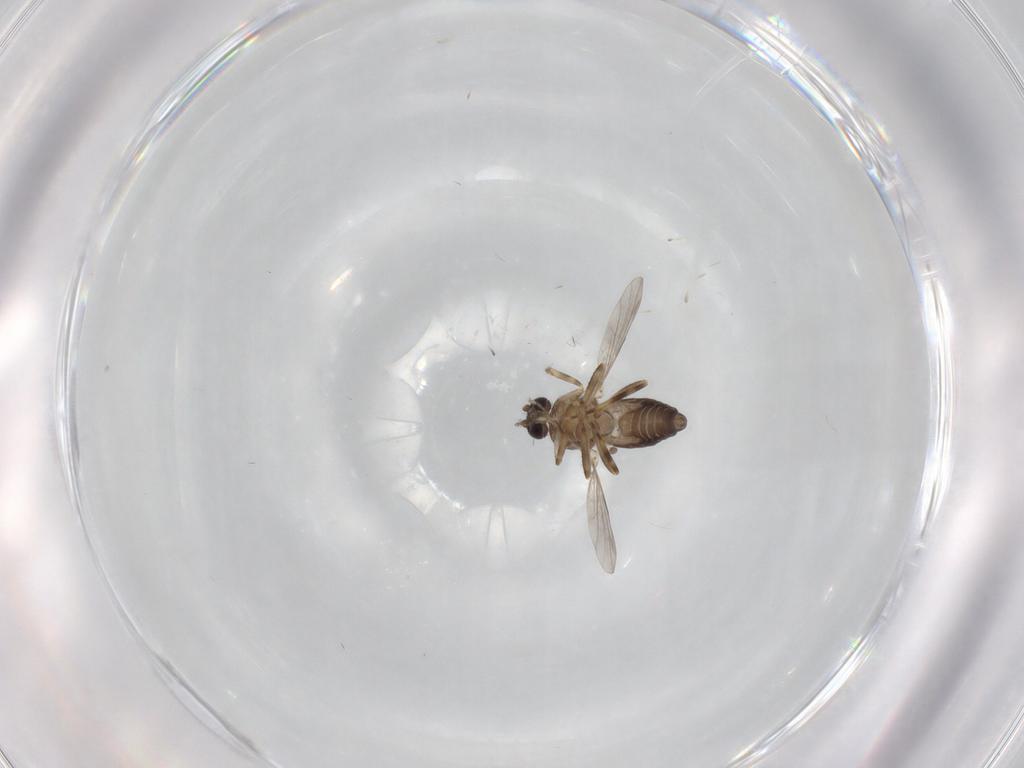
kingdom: Animalia
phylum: Arthropoda
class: Insecta
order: Diptera
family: Ceratopogonidae
